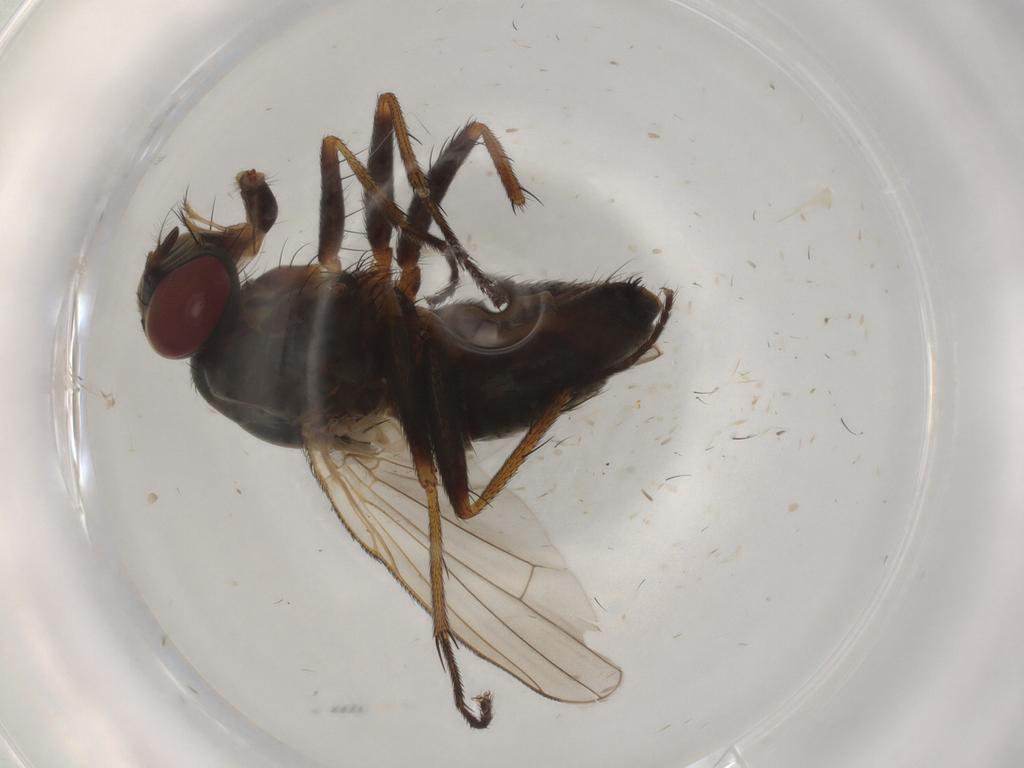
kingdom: Animalia
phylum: Arthropoda
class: Insecta
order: Diptera
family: Muscidae
